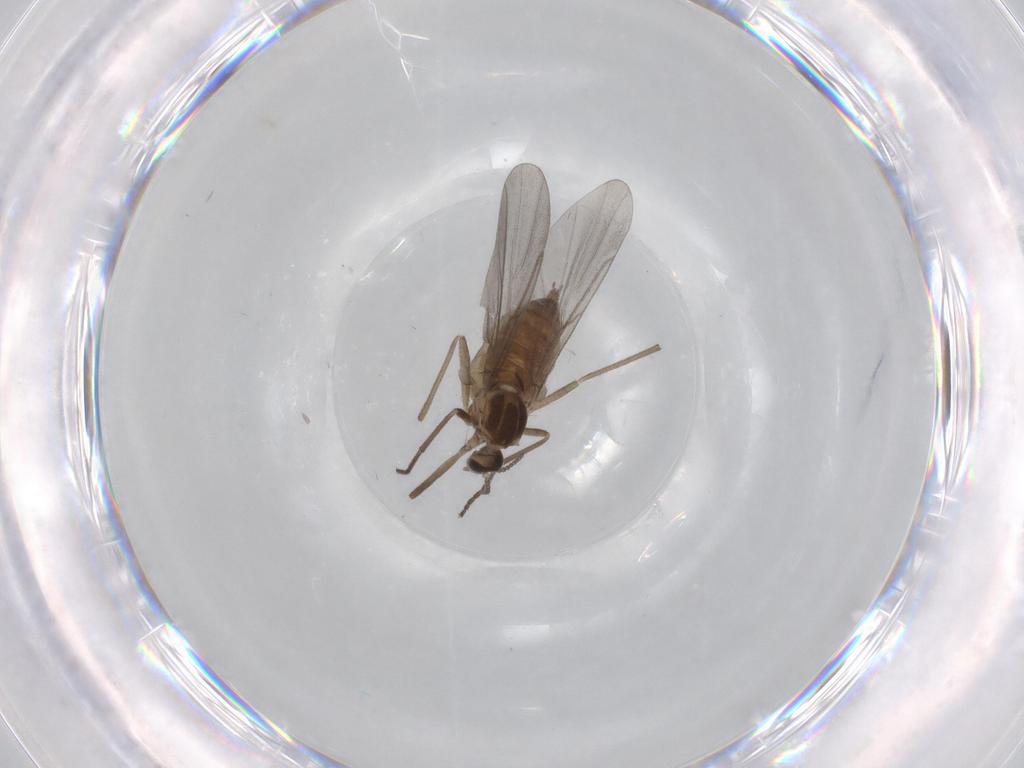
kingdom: Animalia
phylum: Arthropoda
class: Insecta
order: Diptera
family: Cecidomyiidae
